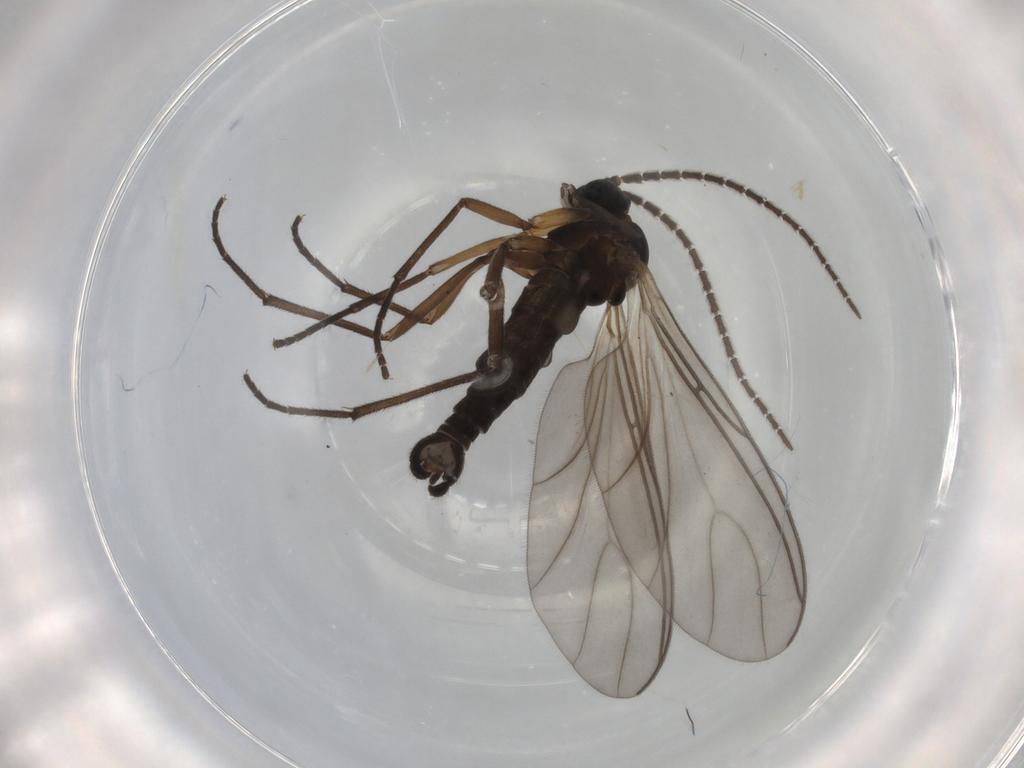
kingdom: Animalia
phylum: Arthropoda
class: Insecta
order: Diptera
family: Sciaridae
